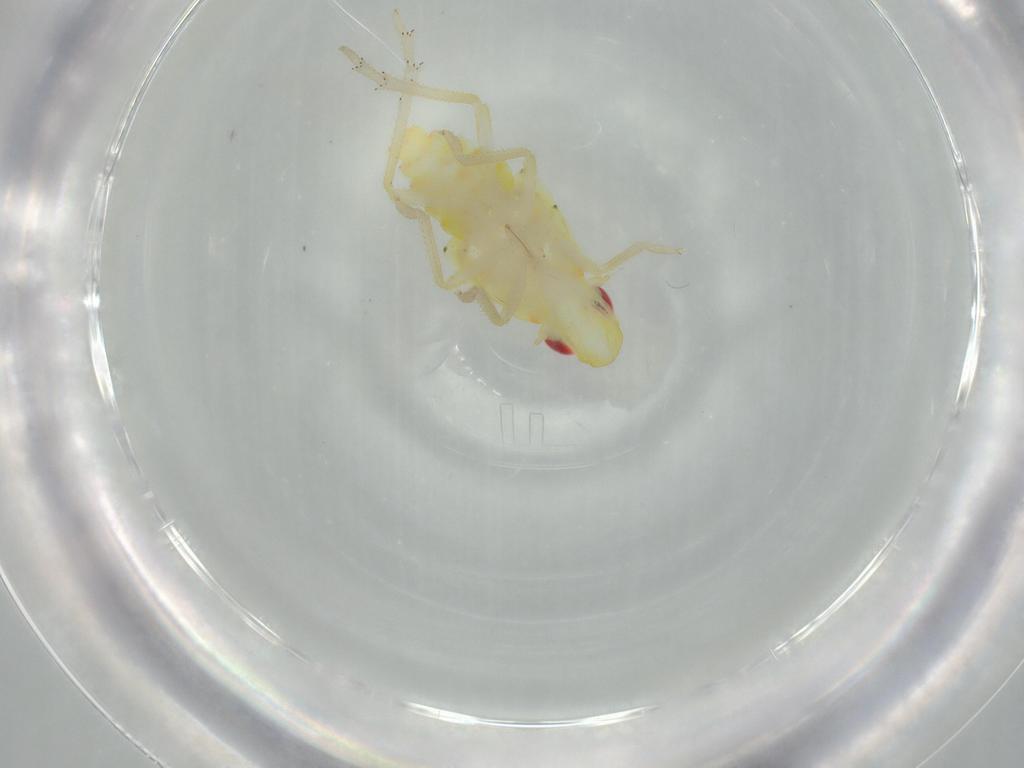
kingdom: Animalia
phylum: Arthropoda
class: Insecta
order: Hemiptera
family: Tropiduchidae
